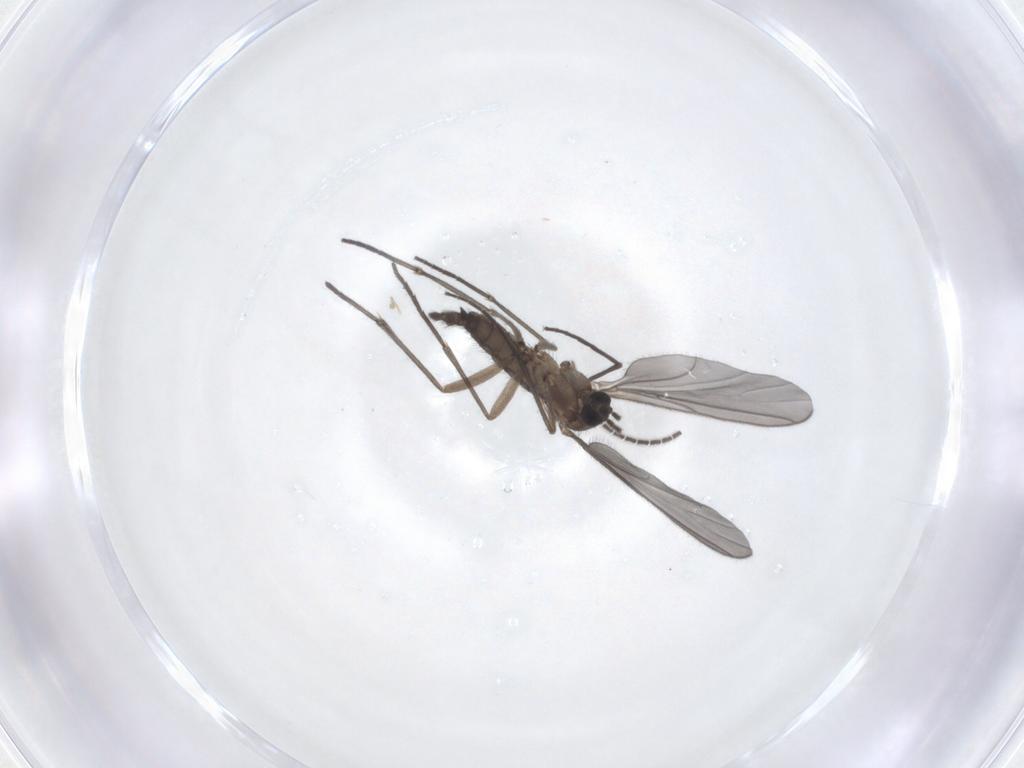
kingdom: Animalia
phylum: Arthropoda
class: Insecta
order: Diptera
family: Sciaridae
